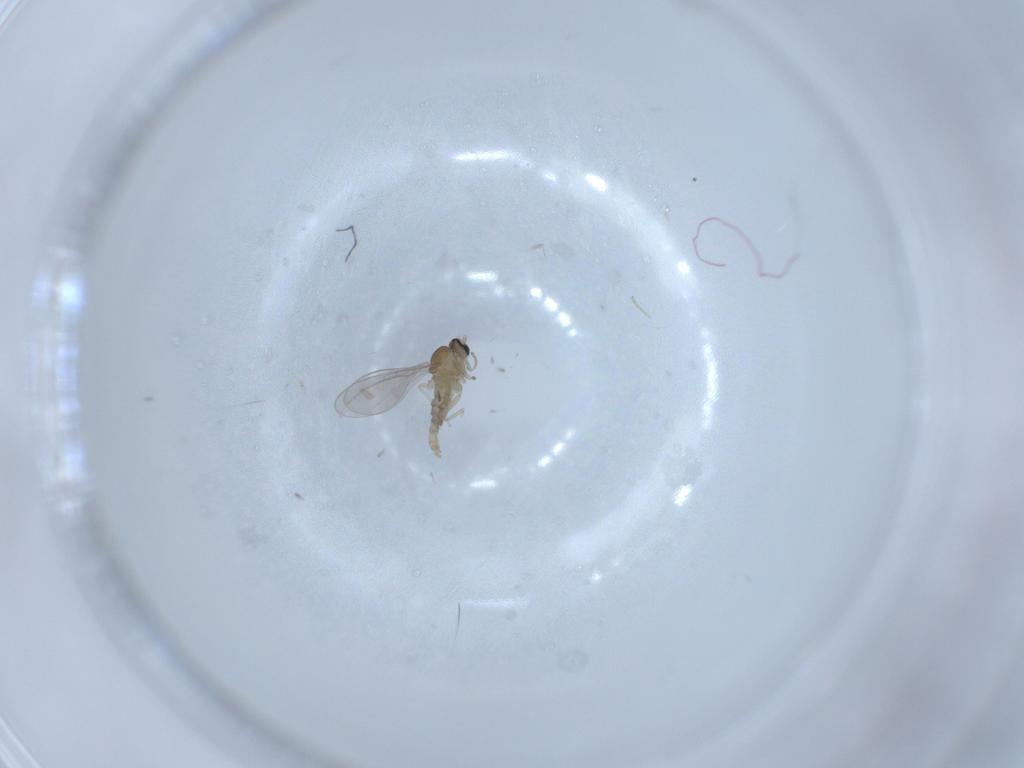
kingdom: Animalia
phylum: Arthropoda
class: Insecta
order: Diptera
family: Cecidomyiidae
